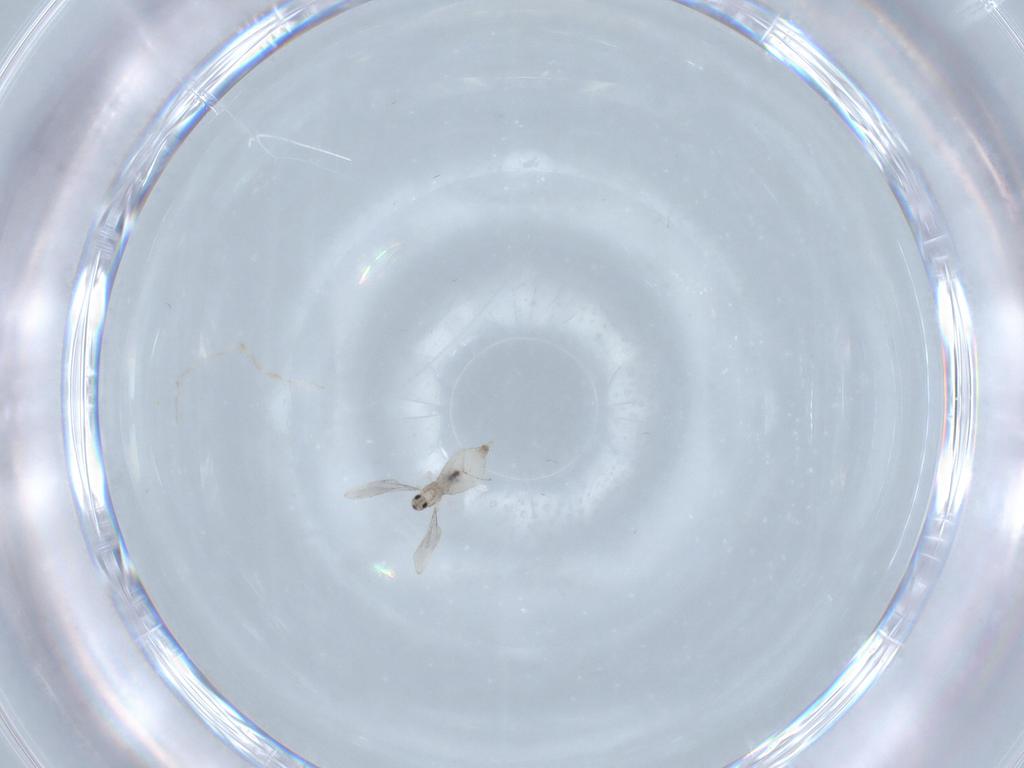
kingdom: Animalia
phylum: Arthropoda
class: Insecta
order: Diptera
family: Cecidomyiidae
